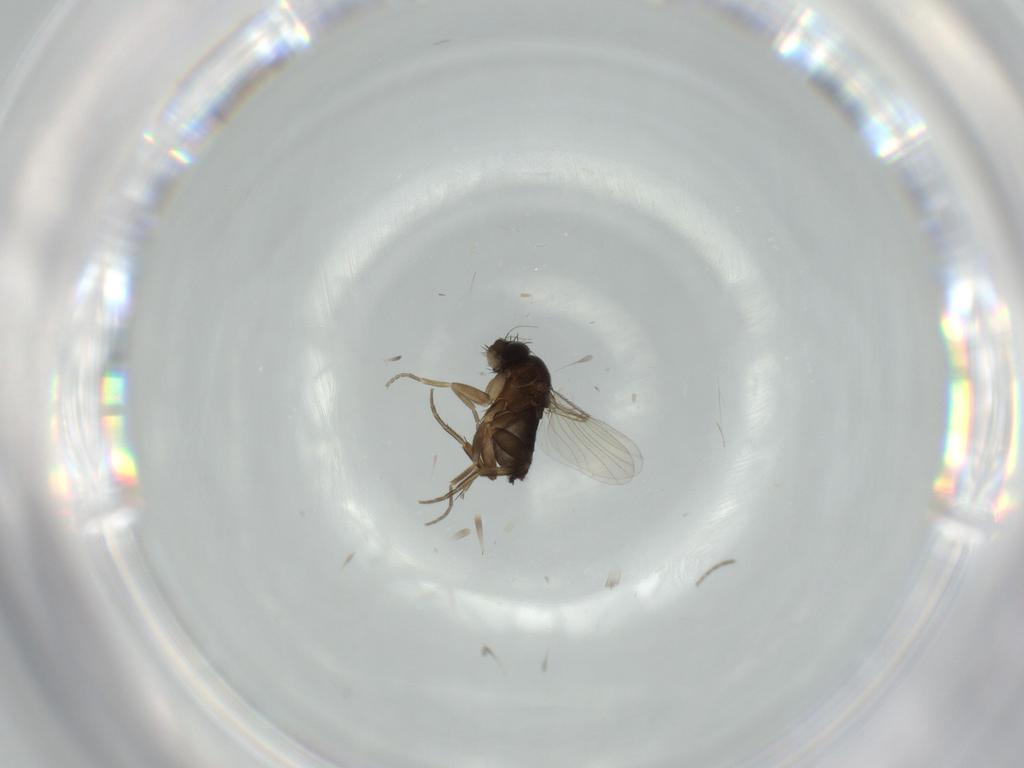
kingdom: Animalia
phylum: Arthropoda
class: Insecta
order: Diptera
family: Phoridae
